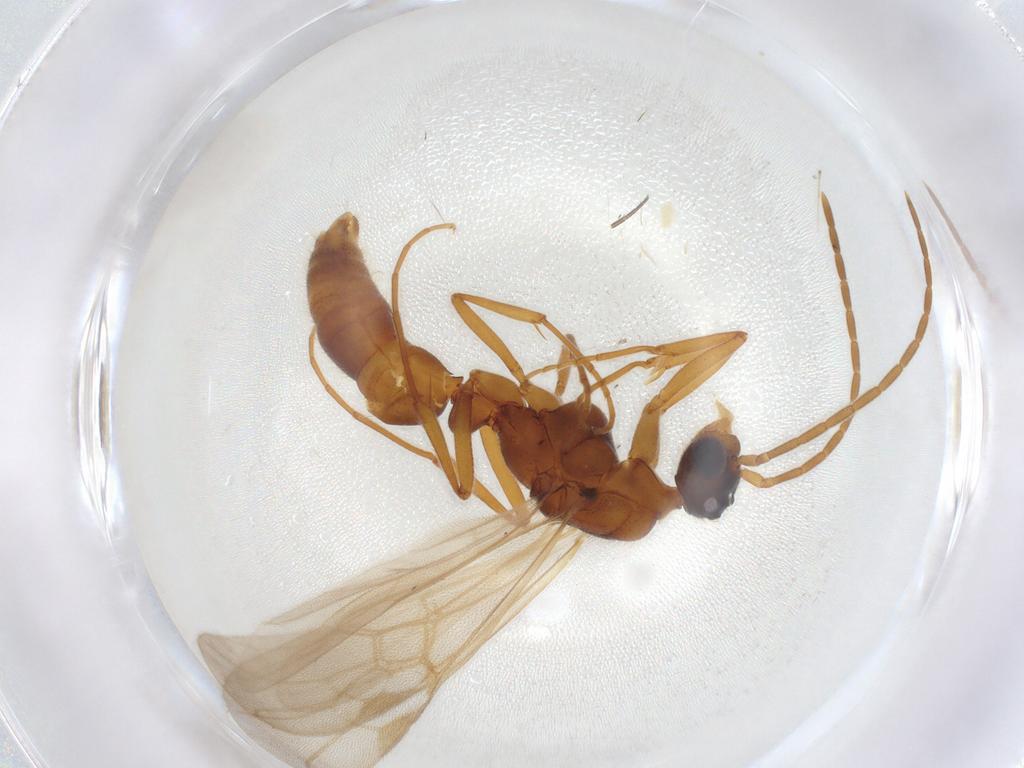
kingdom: Animalia
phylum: Arthropoda
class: Insecta
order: Hymenoptera
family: Formicidae
